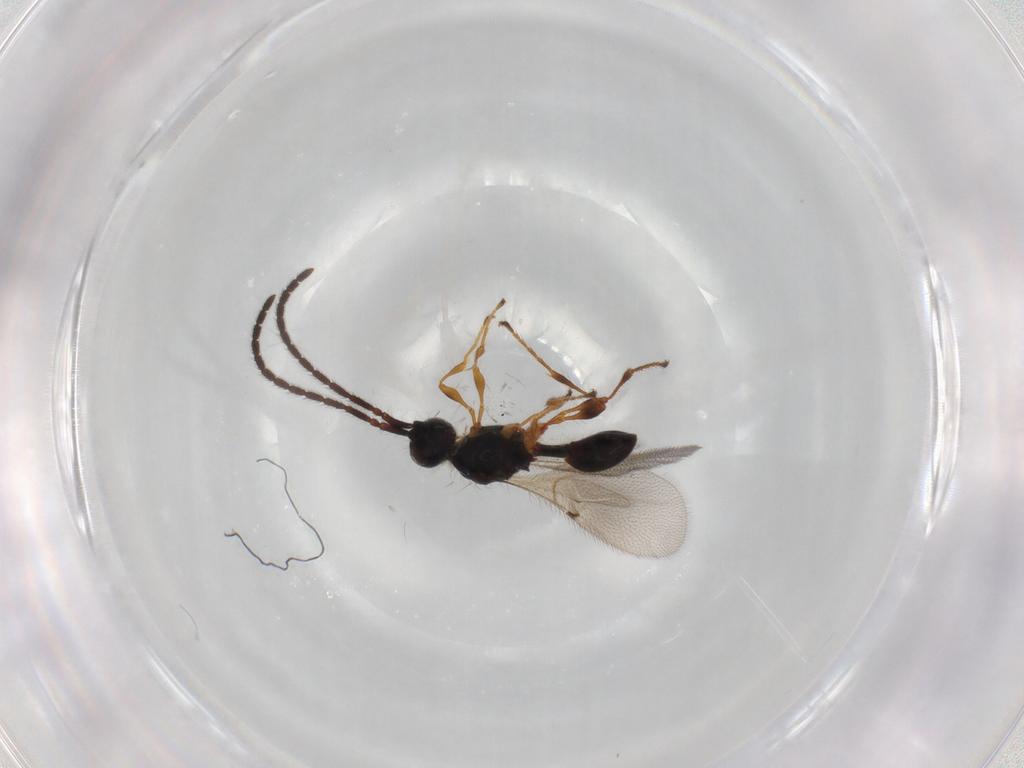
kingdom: Animalia
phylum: Arthropoda
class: Insecta
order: Hymenoptera
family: Diapriidae
